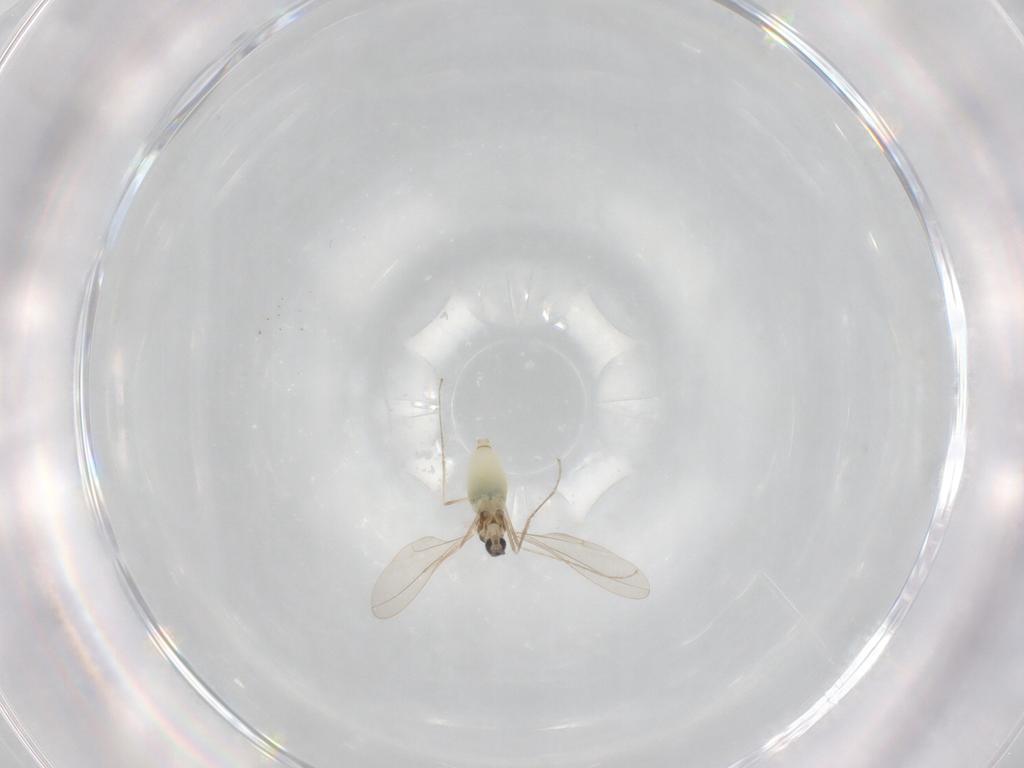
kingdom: Animalia
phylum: Arthropoda
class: Insecta
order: Diptera
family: Cecidomyiidae
